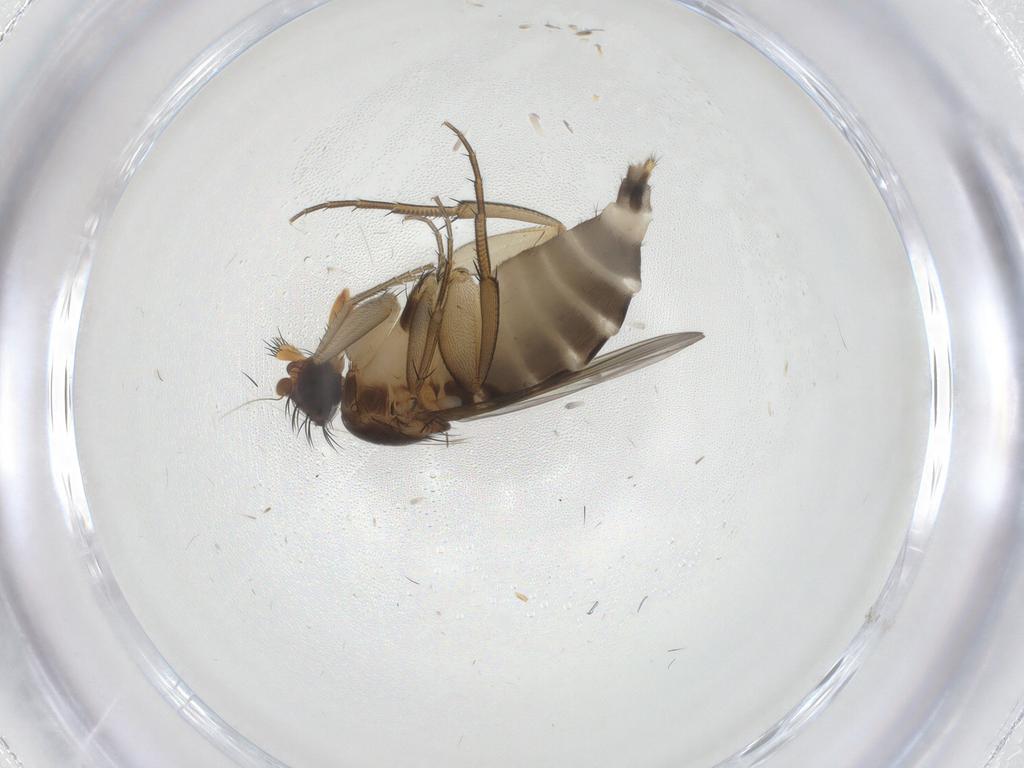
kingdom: Animalia
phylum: Arthropoda
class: Insecta
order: Diptera
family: Phoridae
